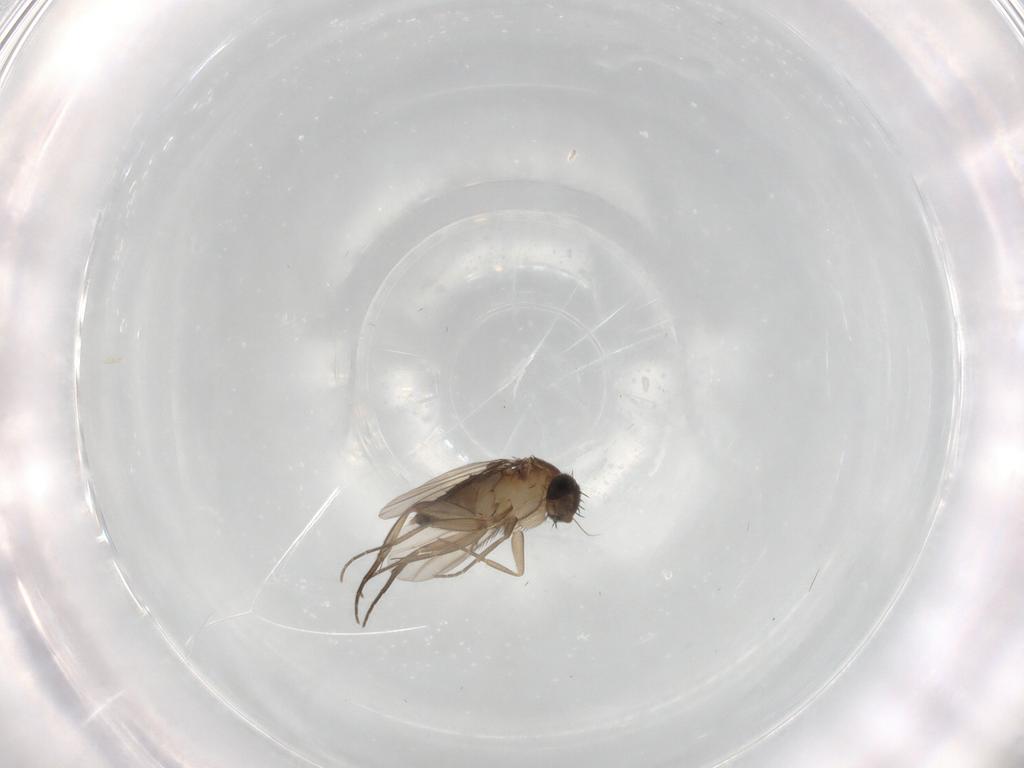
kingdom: Animalia
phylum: Arthropoda
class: Insecta
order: Diptera
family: Phoridae
